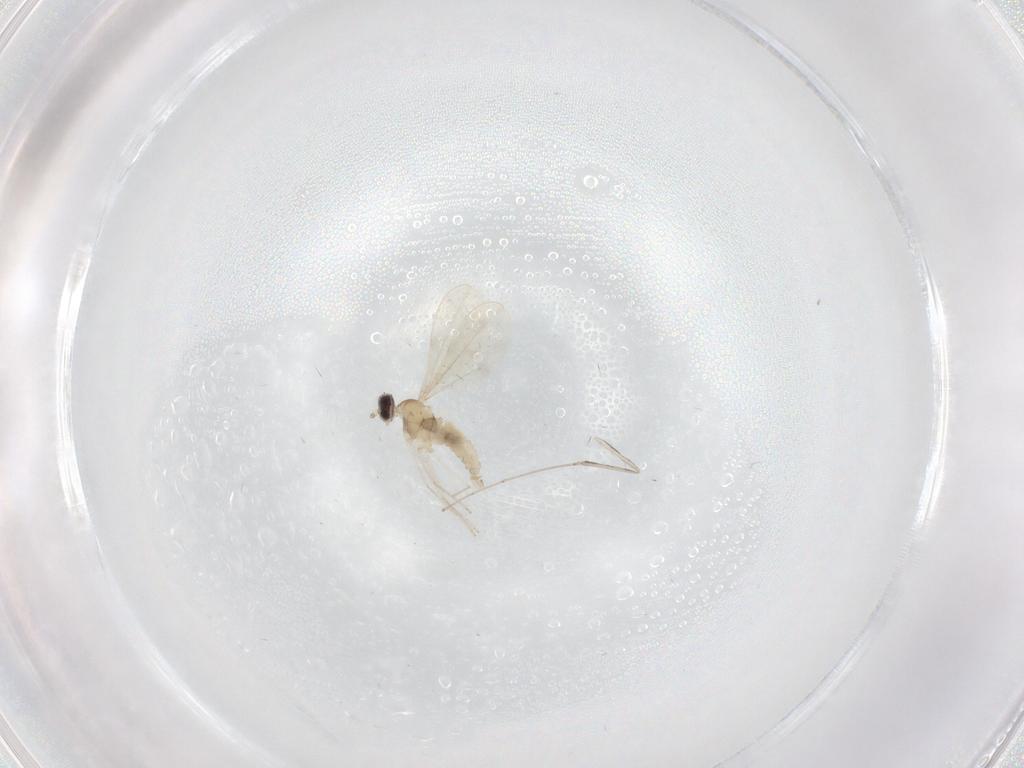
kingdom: Animalia
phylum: Arthropoda
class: Insecta
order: Diptera
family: Cecidomyiidae
